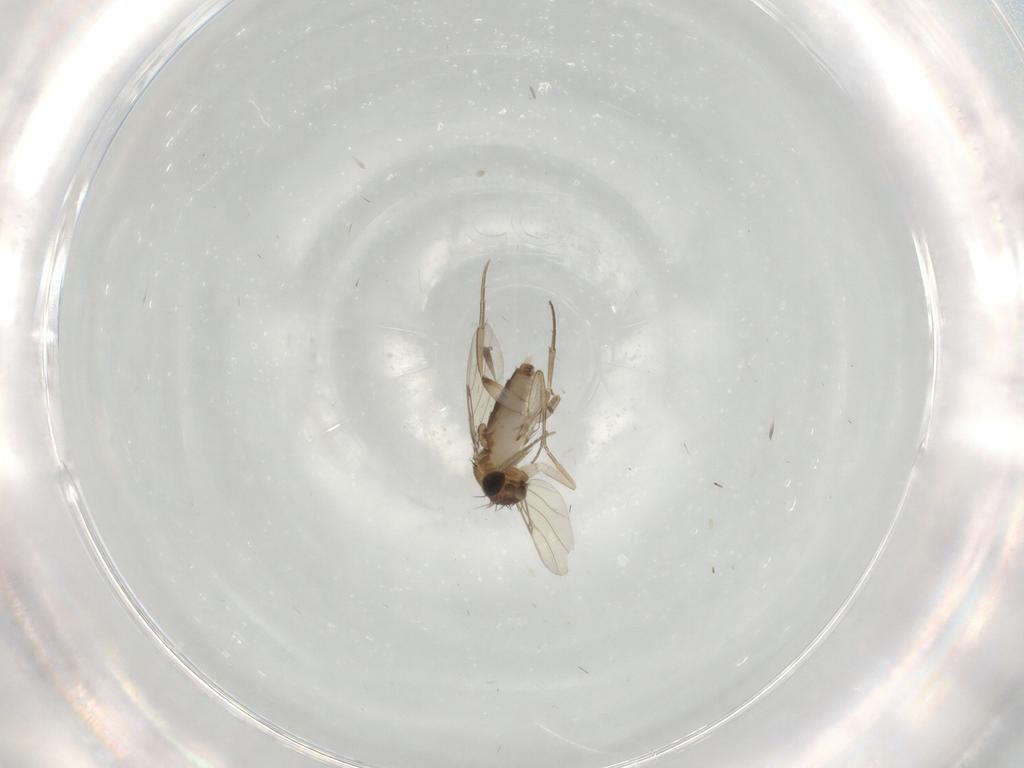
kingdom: Animalia
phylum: Arthropoda
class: Insecta
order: Diptera
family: Phoridae
